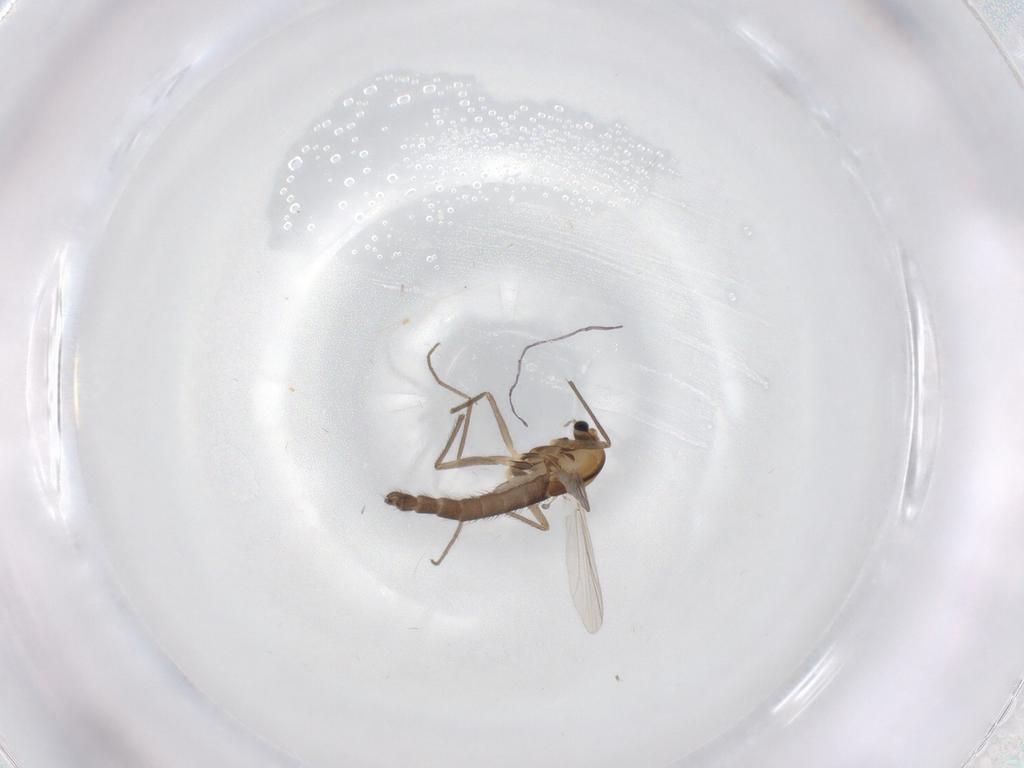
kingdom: Animalia
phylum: Arthropoda
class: Insecta
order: Diptera
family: Chironomidae
